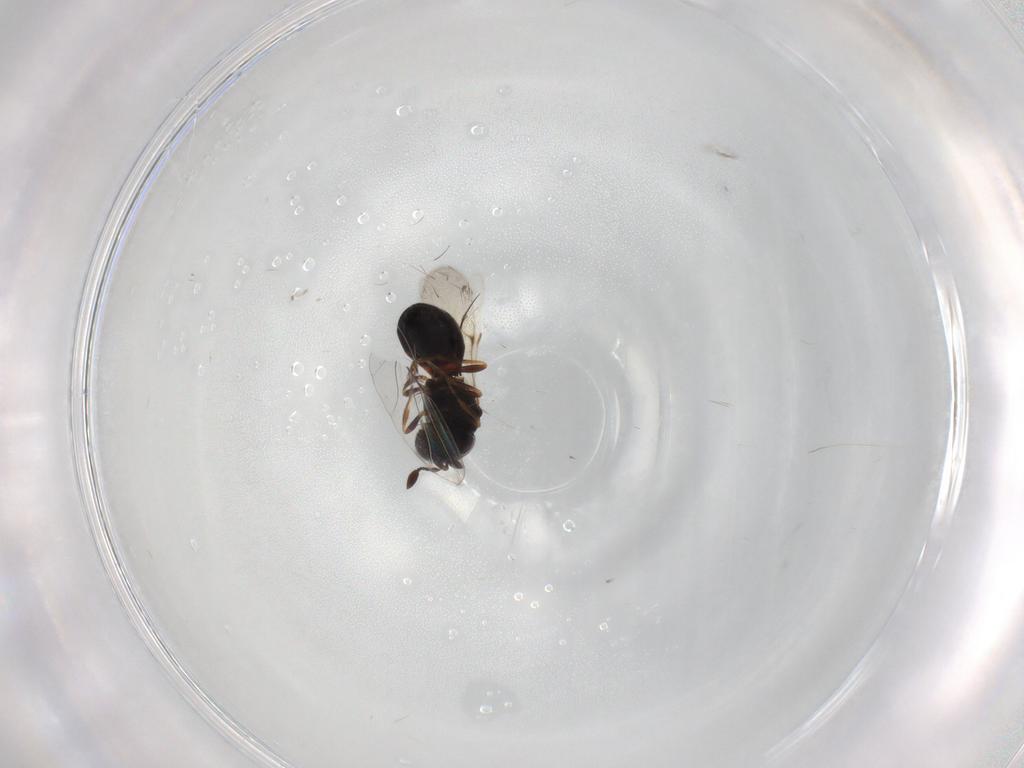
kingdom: Animalia
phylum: Arthropoda
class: Insecta
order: Hymenoptera
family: Scelionidae
